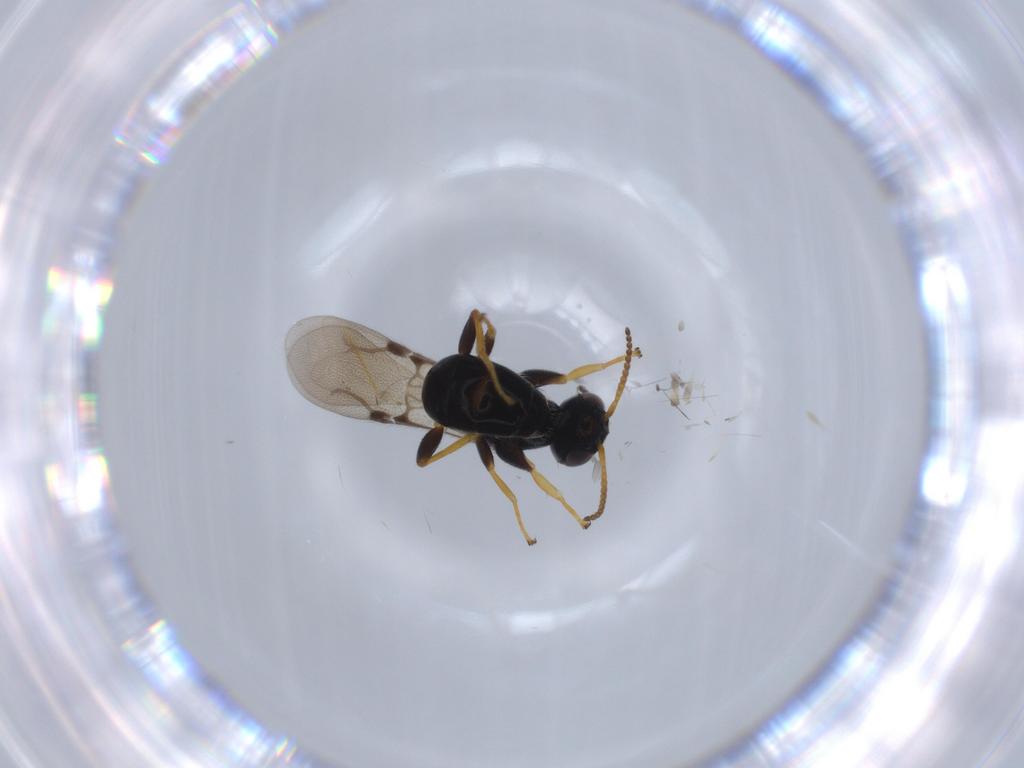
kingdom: Animalia
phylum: Arthropoda
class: Insecta
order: Hymenoptera
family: Bethylidae
